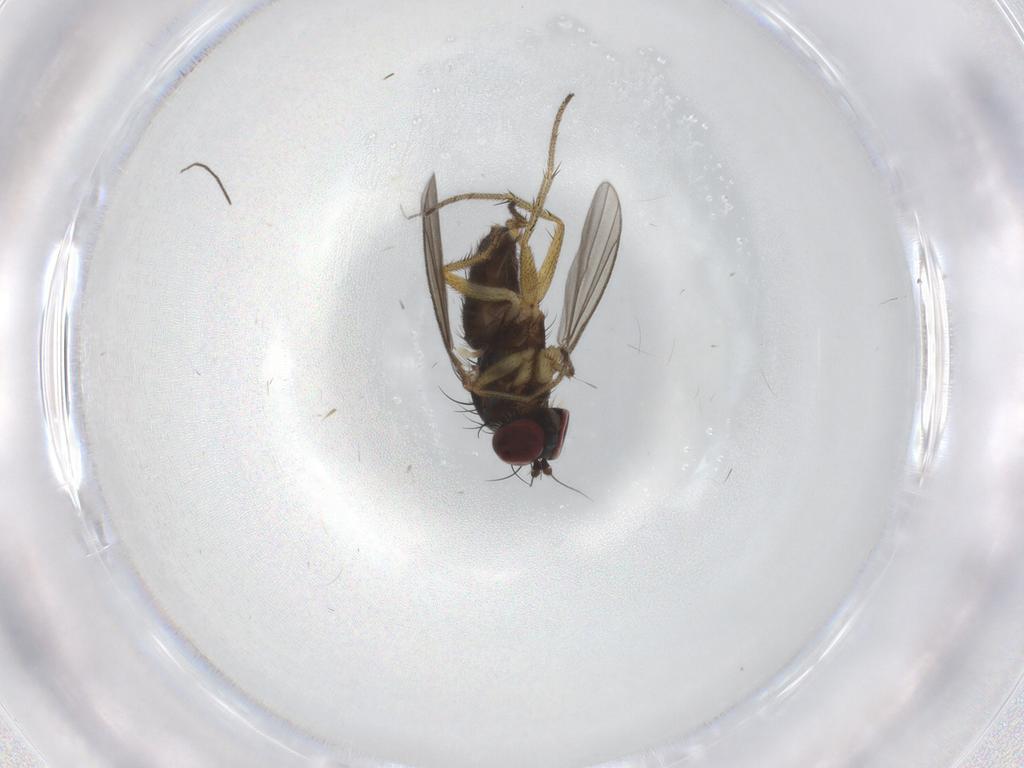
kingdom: Animalia
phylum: Arthropoda
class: Insecta
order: Diptera
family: Dolichopodidae
